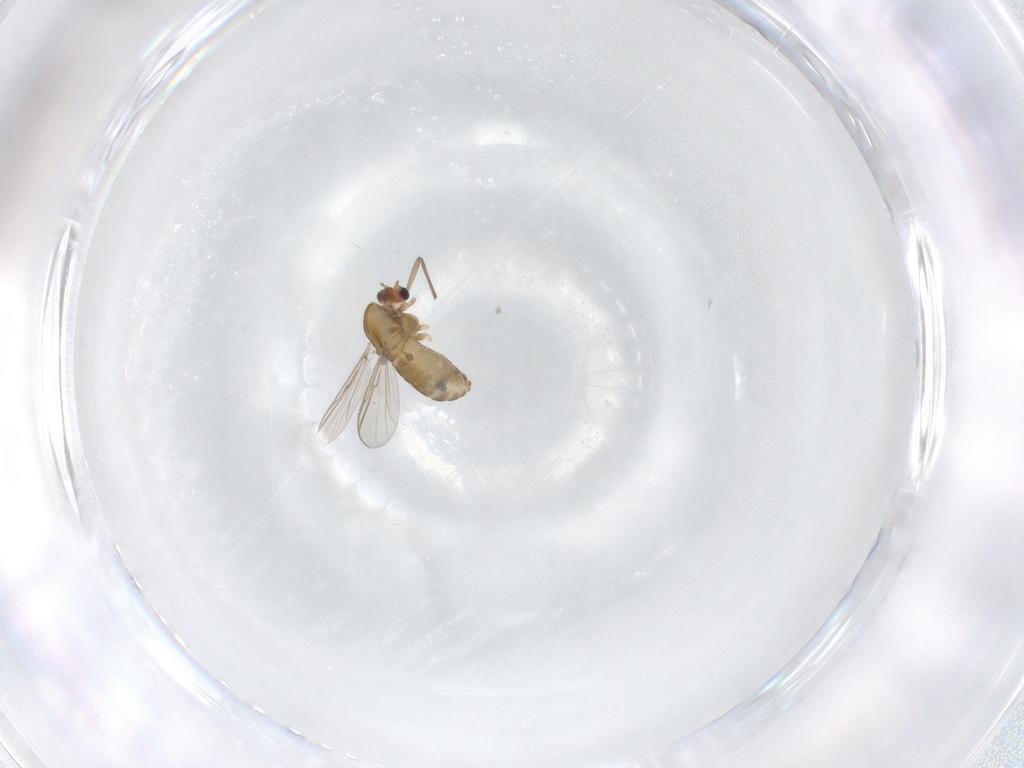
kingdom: Animalia
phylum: Arthropoda
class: Insecta
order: Diptera
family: Chironomidae
